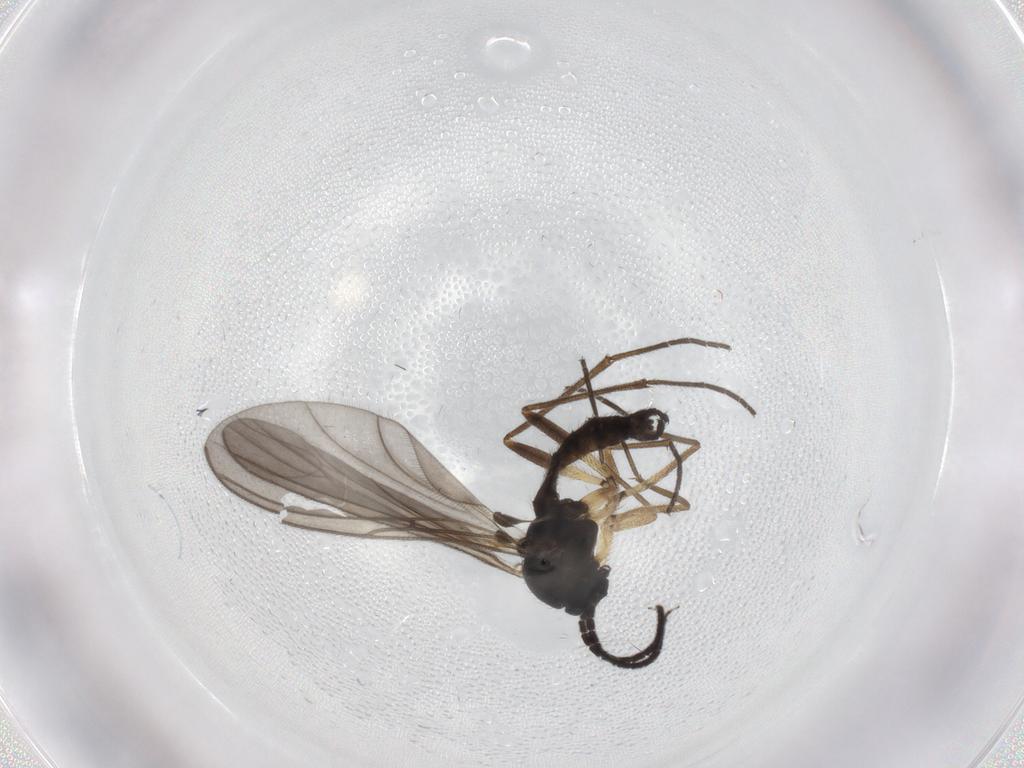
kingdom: Animalia
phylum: Arthropoda
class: Insecta
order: Diptera
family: Sciaridae
